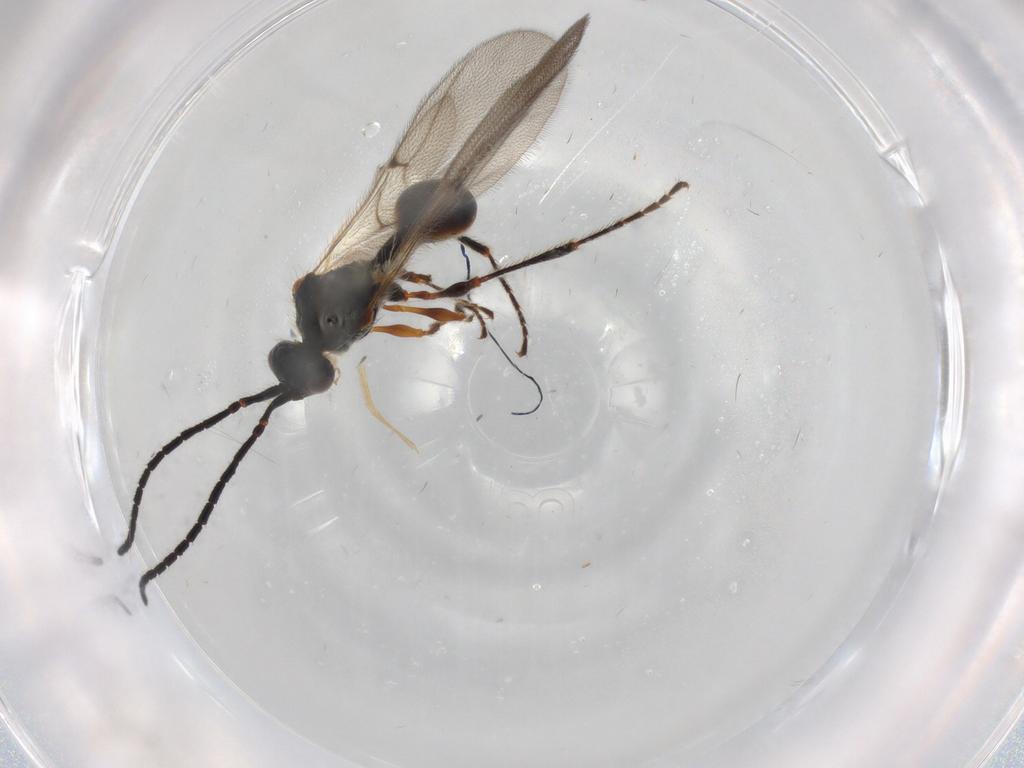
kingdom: Animalia
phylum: Arthropoda
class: Insecta
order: Hymenoptera
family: Diapriidae
